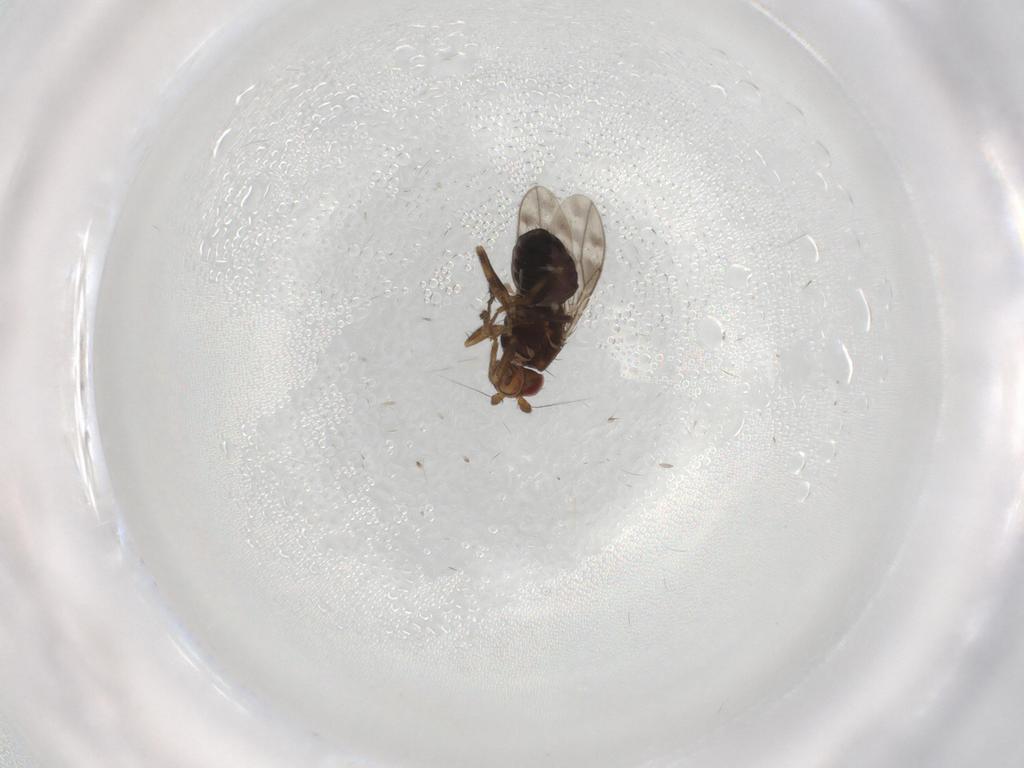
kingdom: Animalia
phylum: Arthropoda
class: Insecta
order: Diptera
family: Sphaeroceridae
